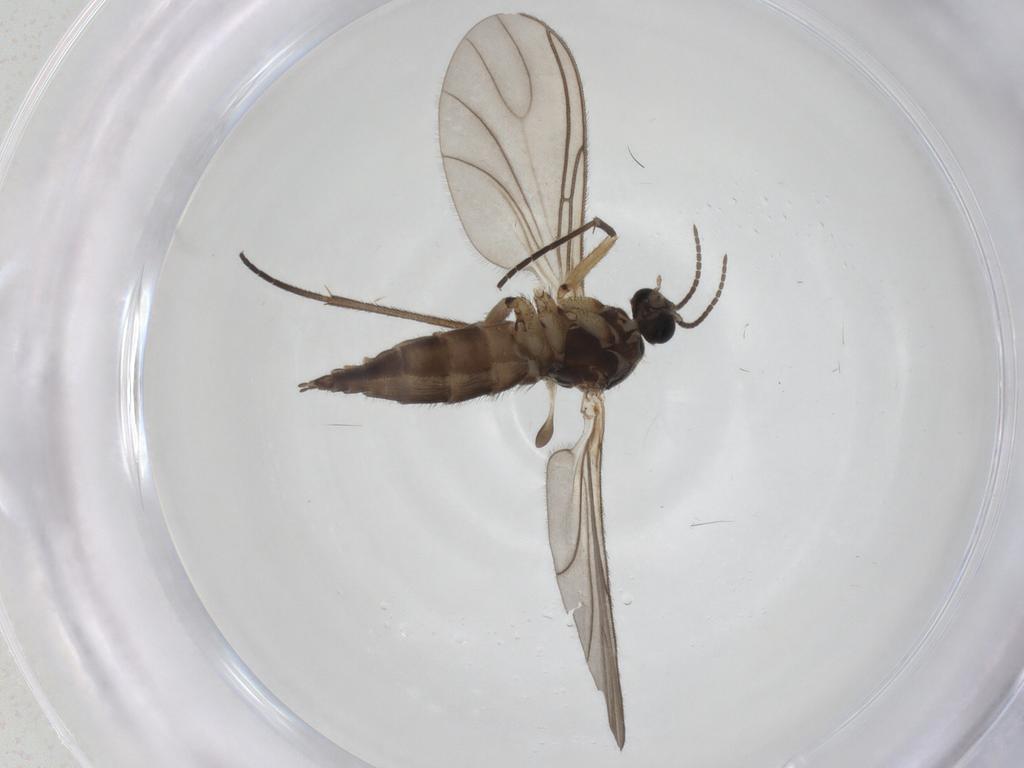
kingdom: Animalia
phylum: Arthropoda
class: Insecta
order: Diptera
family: Sciaridae
